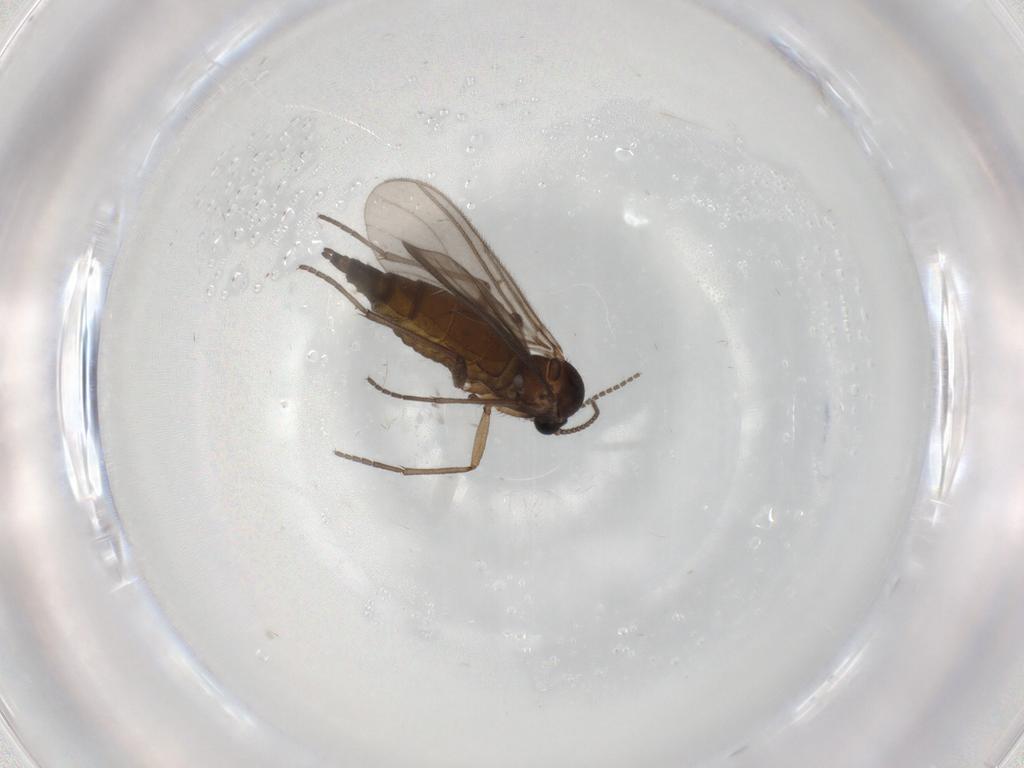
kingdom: Animalia
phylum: Arthropoda
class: Insecta
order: Diptera
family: Sciaridae
